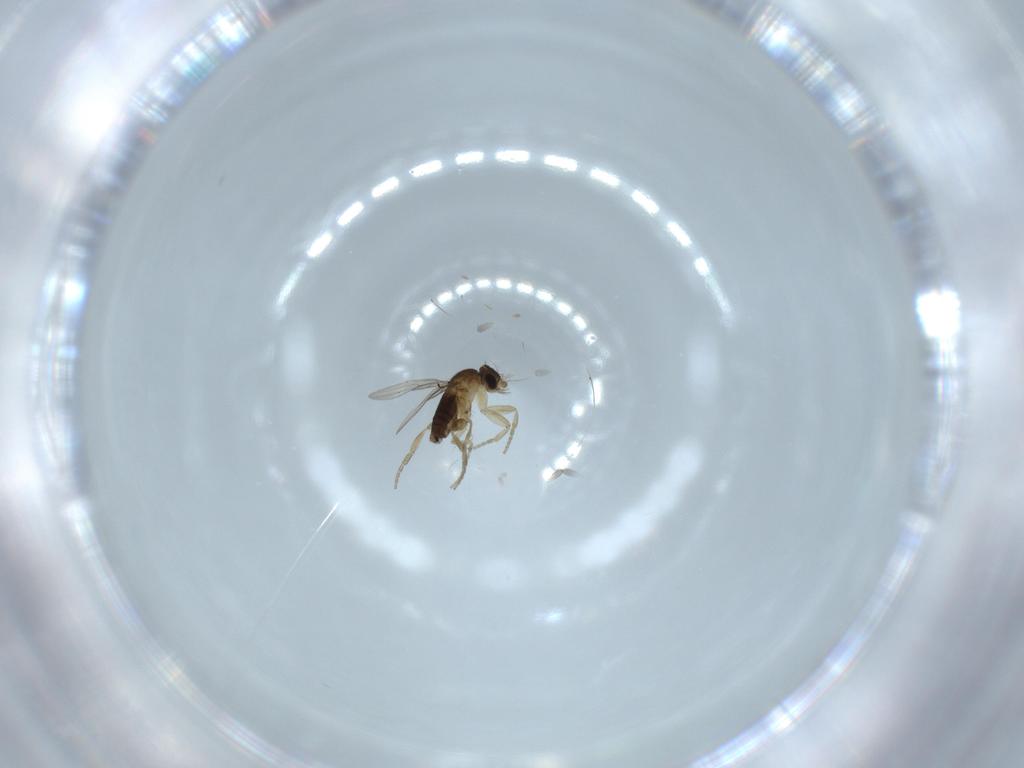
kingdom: Animalia
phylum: Arthropoda
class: Insecta
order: Diptera
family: Phoridae
